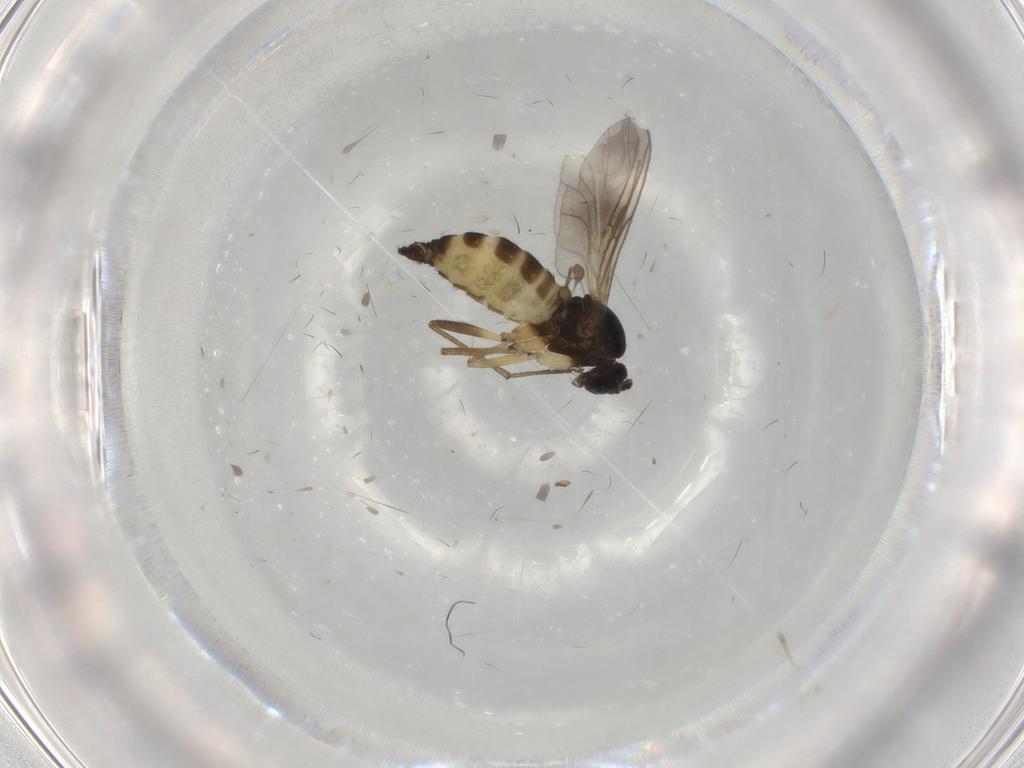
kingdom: Animalia
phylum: Arthropoda
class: Insecta
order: Diptera
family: Sciaridae
